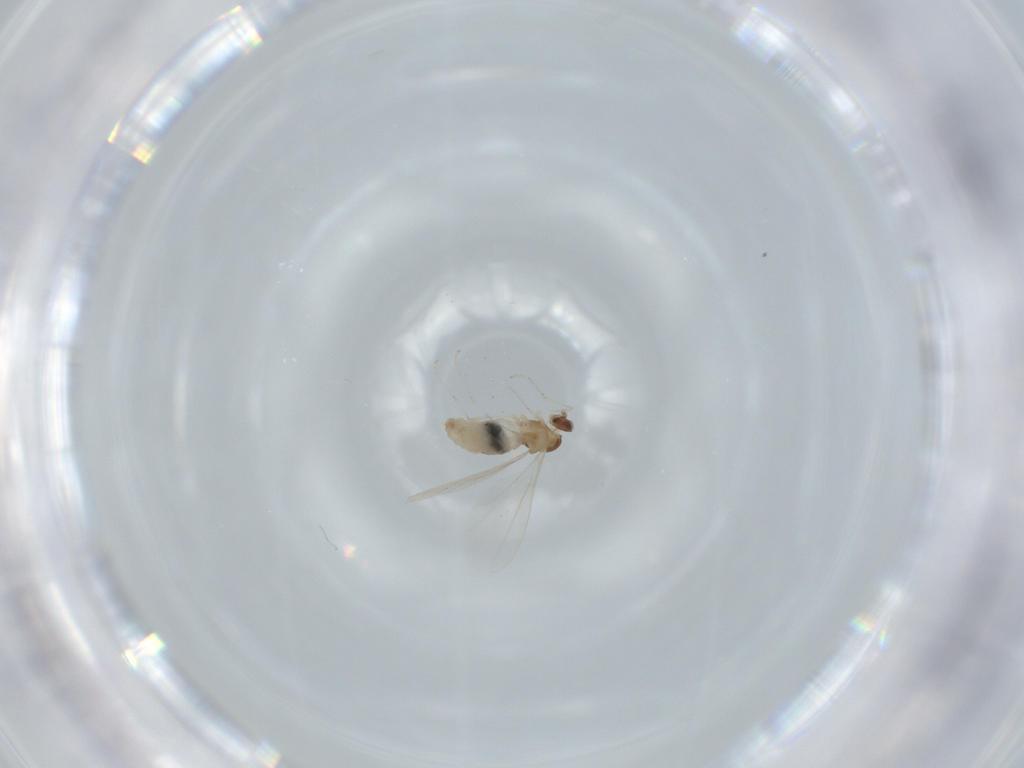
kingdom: Animalia
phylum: Arthropoda
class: Insecta
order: Diptera
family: Cecidomyiidae
